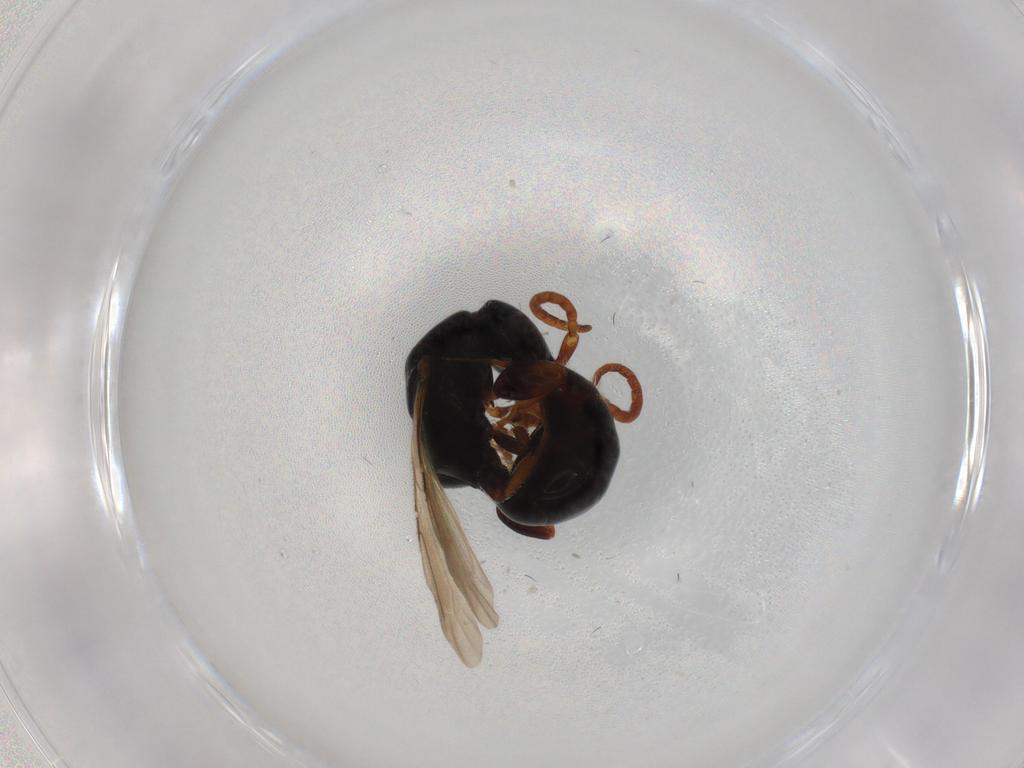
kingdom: Animalia
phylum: Arthropoda
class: Insecta
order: Hymenoptera
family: Bethylidae
